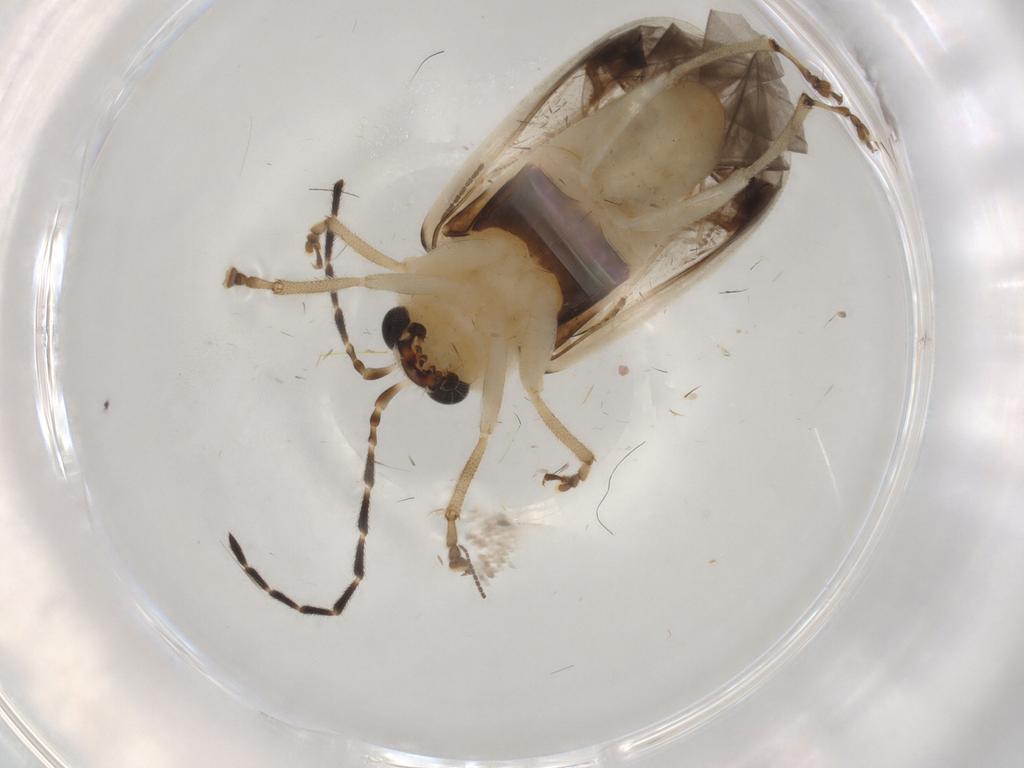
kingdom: Animalia
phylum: Arthropoda
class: Insecta
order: Coleoptera
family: Chrysomelidae
